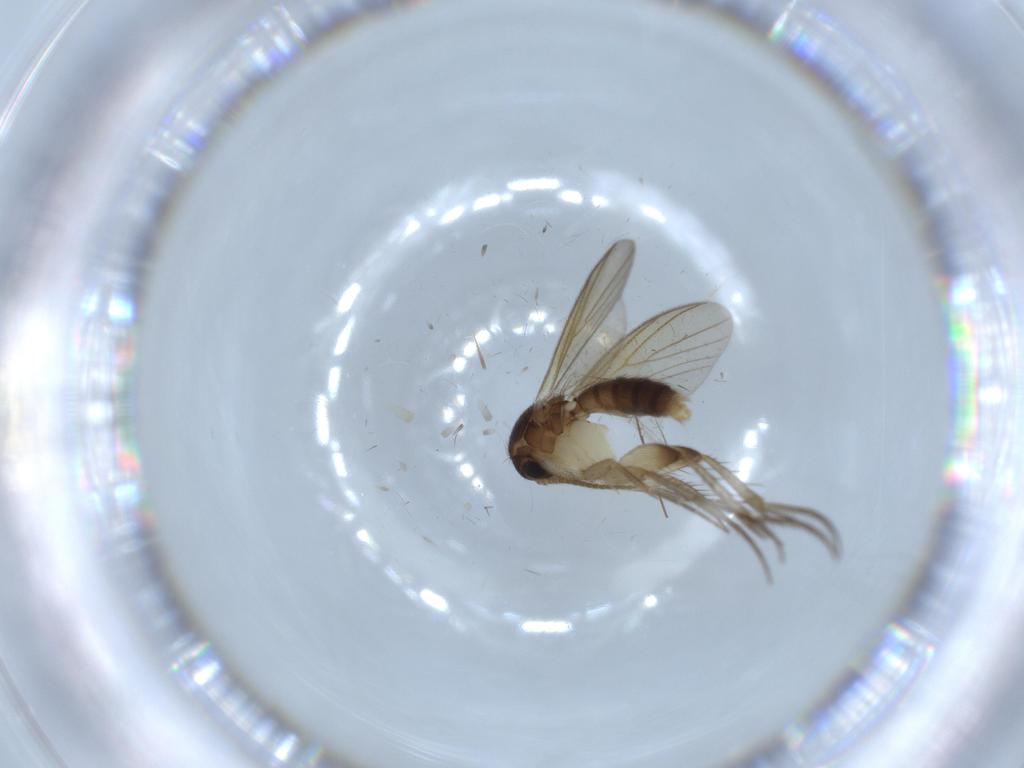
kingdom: Animalia
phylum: Arthropoda
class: Insecta
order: Diptera
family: Mycetophilidae
